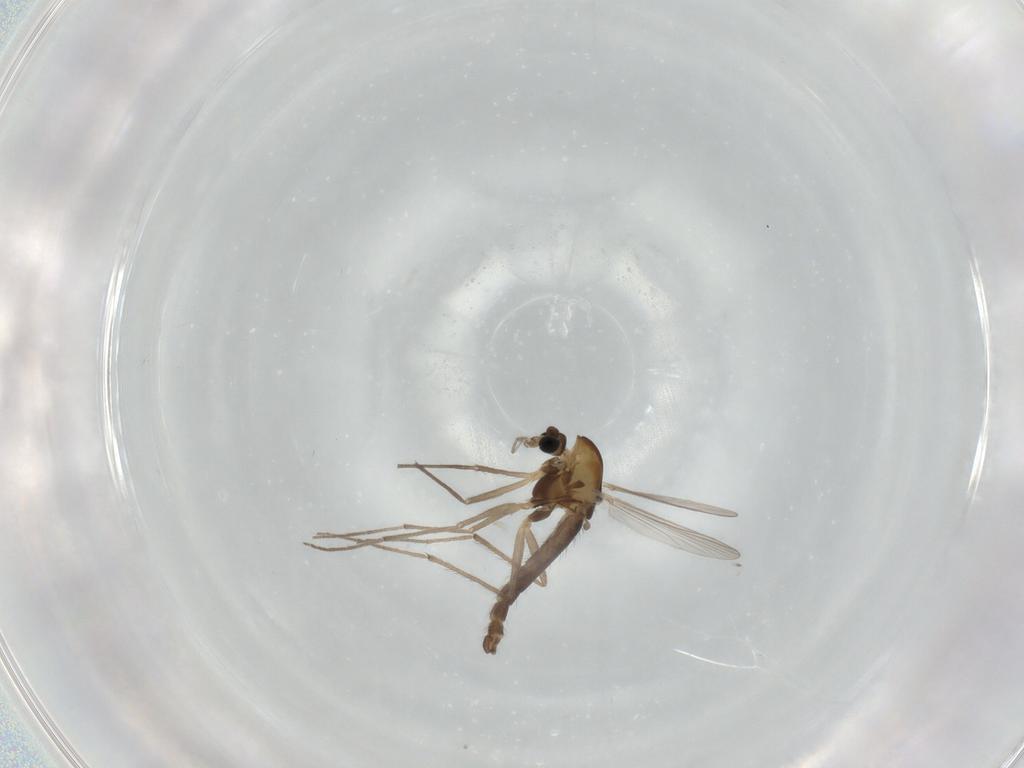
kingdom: Animalia
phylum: Arthropoda
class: Insecta
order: Diptera
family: Chironomidae
